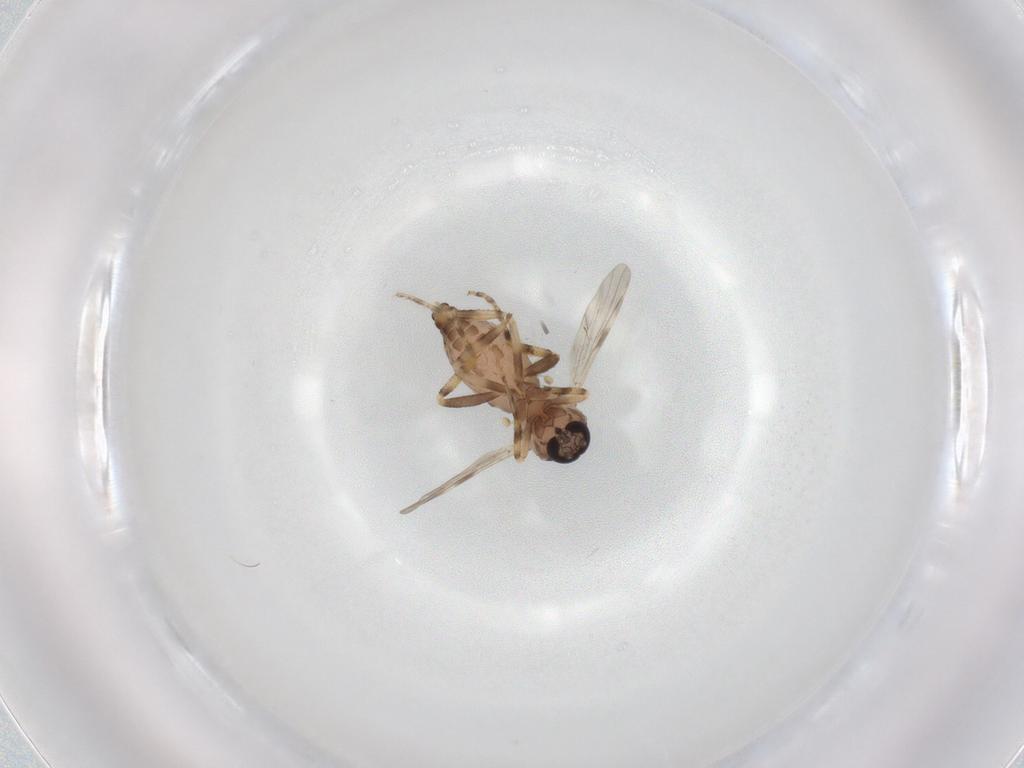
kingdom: Animalia
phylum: Arthropoda
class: Insecta
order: Diptera
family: Ceratopogonidae
